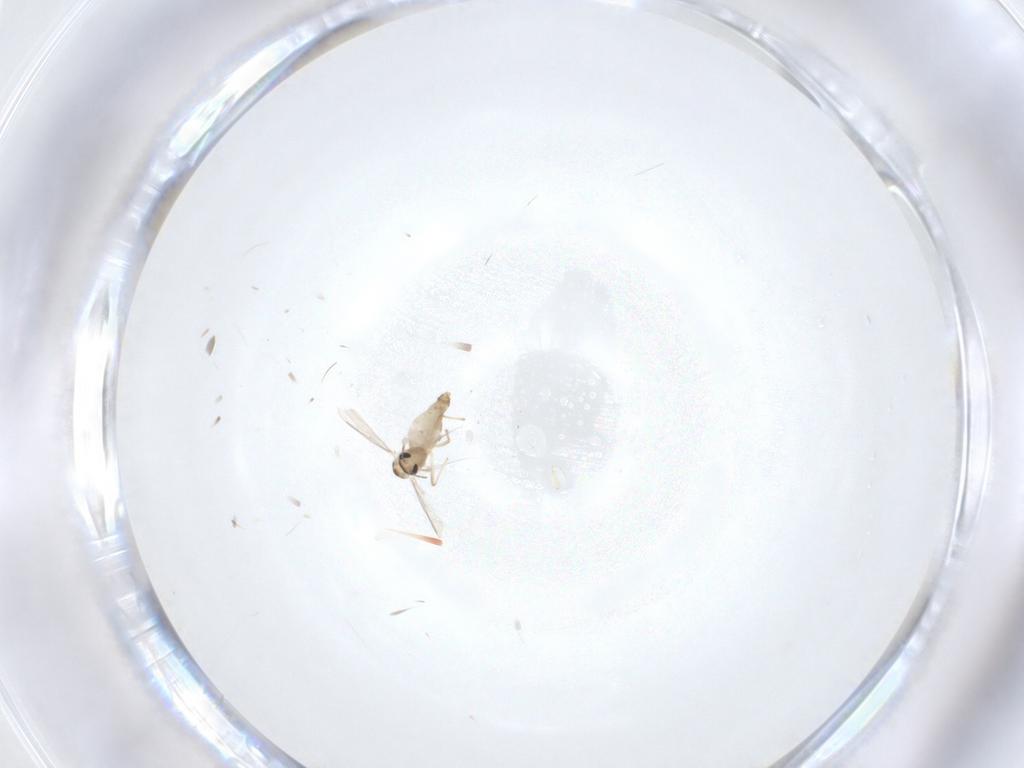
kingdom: Animalia
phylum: Arthropoda
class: Insecta
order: Diptera
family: Chironomidae
